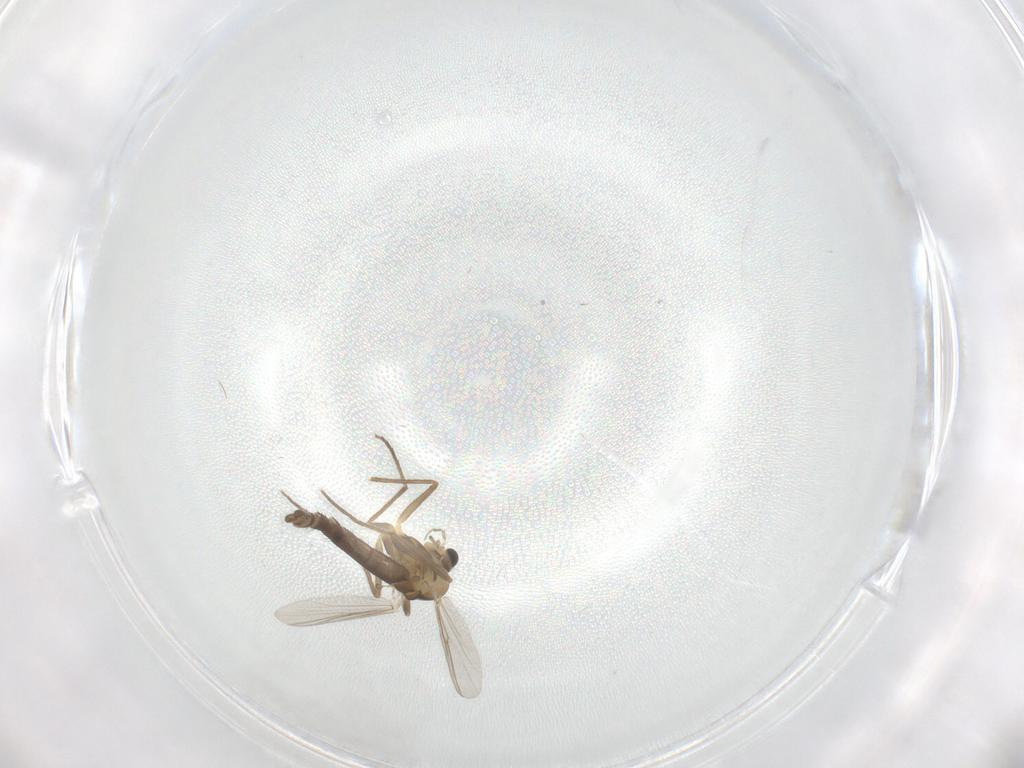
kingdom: Animalia
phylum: Arthropoda
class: Insecta
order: Diptera
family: Chironomidae
